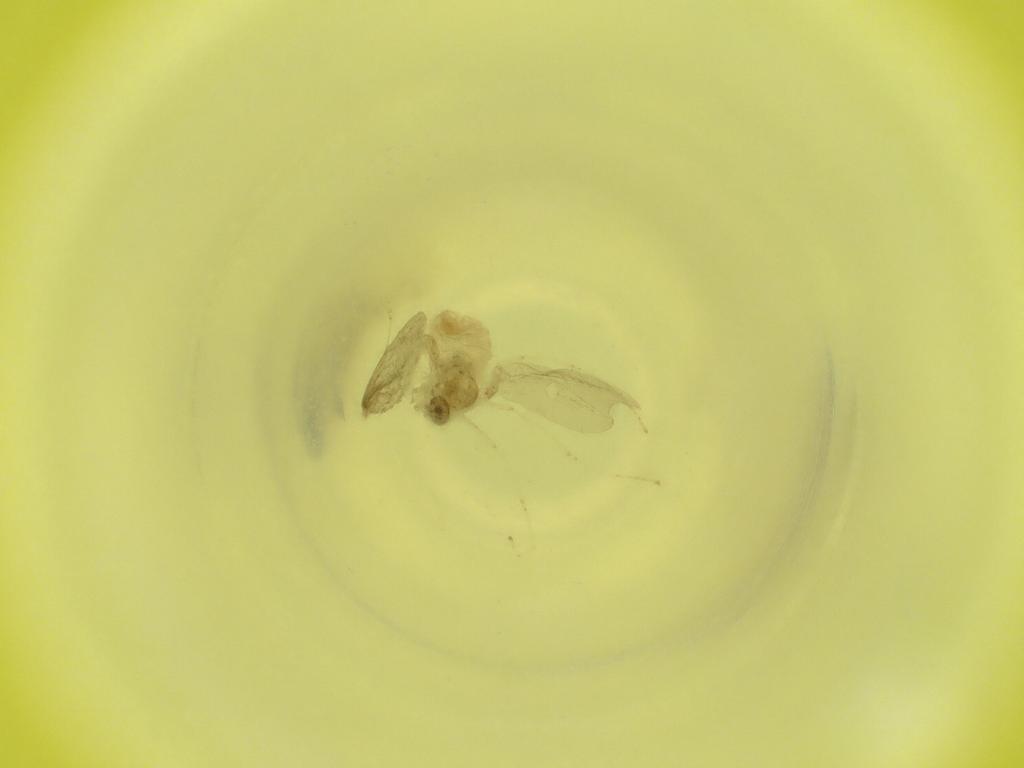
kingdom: Animalia
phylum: Arthropoda
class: Insecta
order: Diptera
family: Cecidomyiidae
